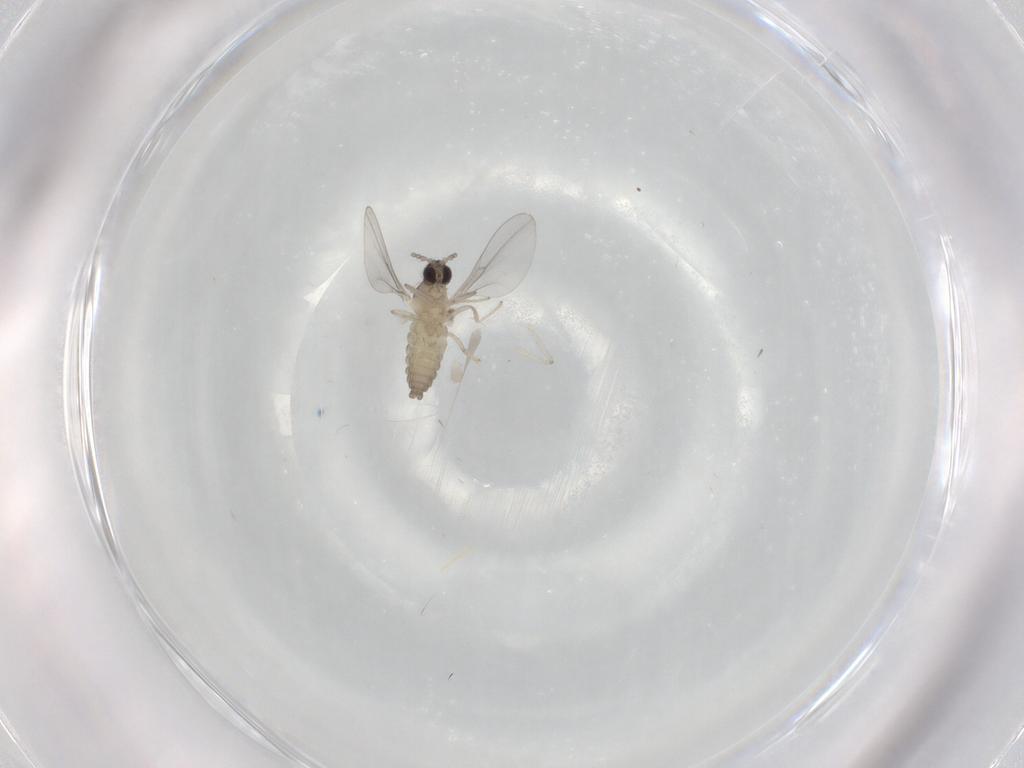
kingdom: Animalia
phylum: Arthropoda
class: Insecta
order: Diptera
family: Cecidomyiidae
